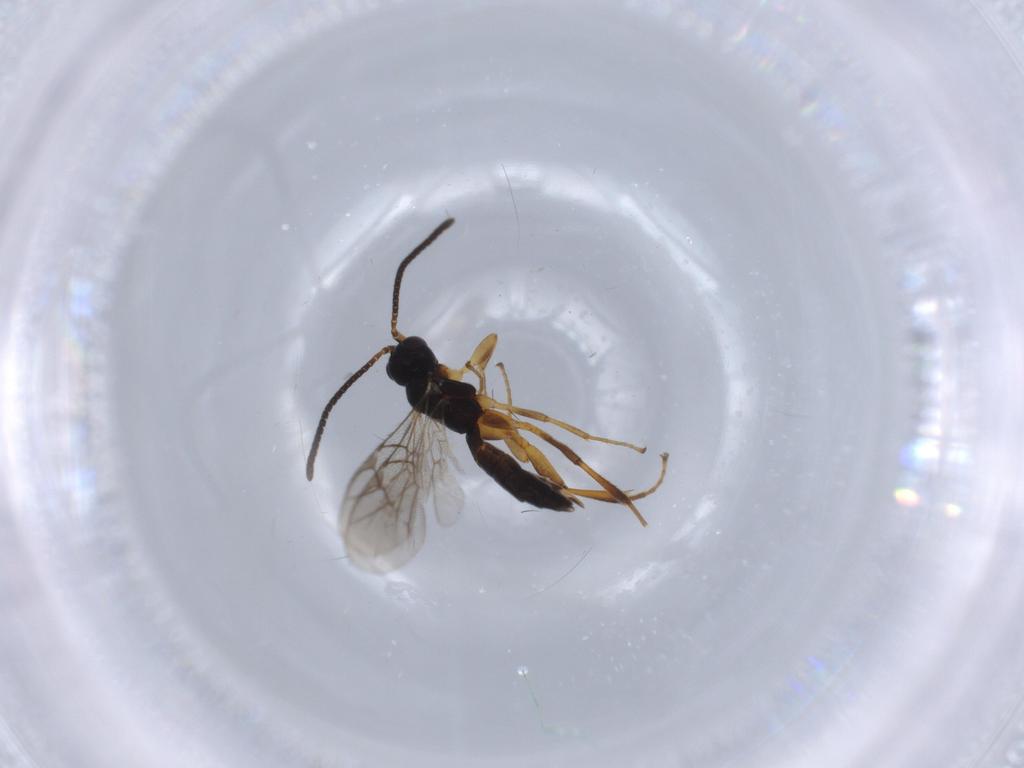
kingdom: Animalia
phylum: Arthropoda
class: Insecta
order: Hymenoptera
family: Ichneumonidae
